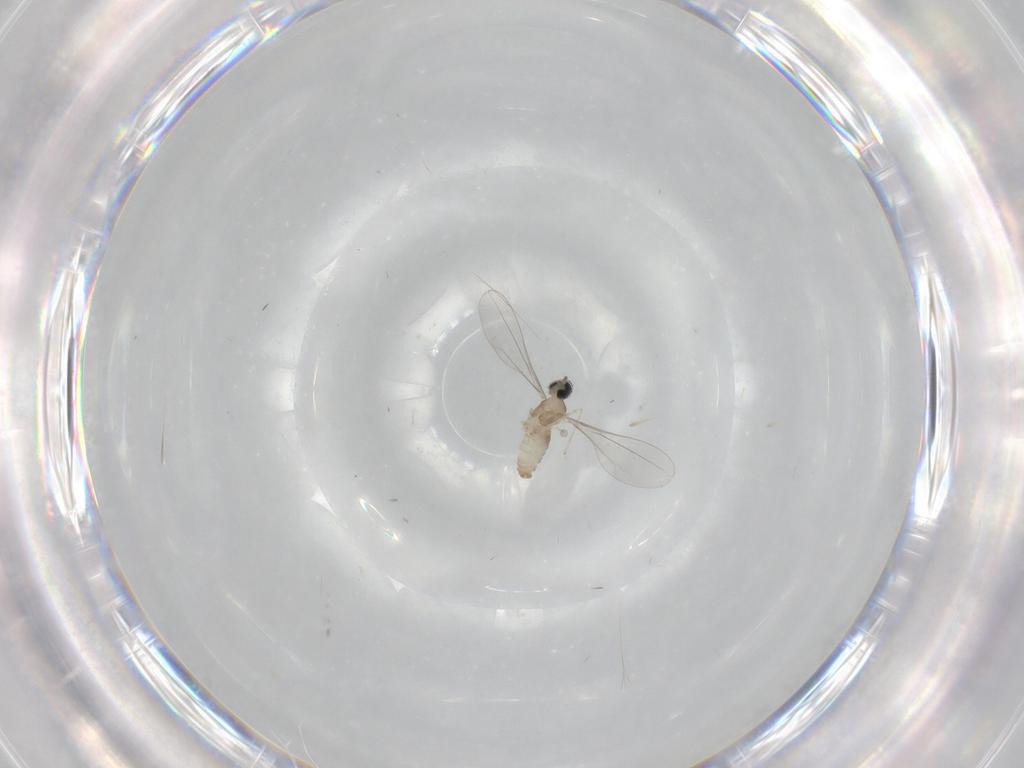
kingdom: Animalia
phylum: Arthropoda
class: Insecta
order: Diptera
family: Cecidomyiidae
